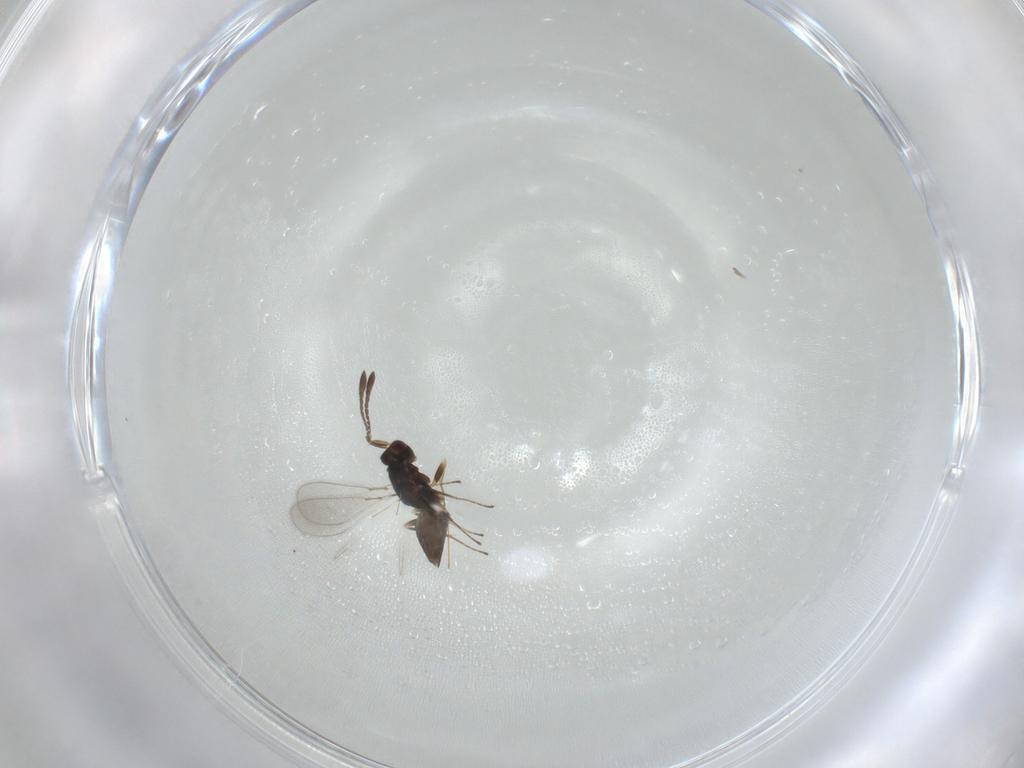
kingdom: Animalia
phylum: Arthropoda
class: Insecta
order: Hymenoptera
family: Mymaridae
